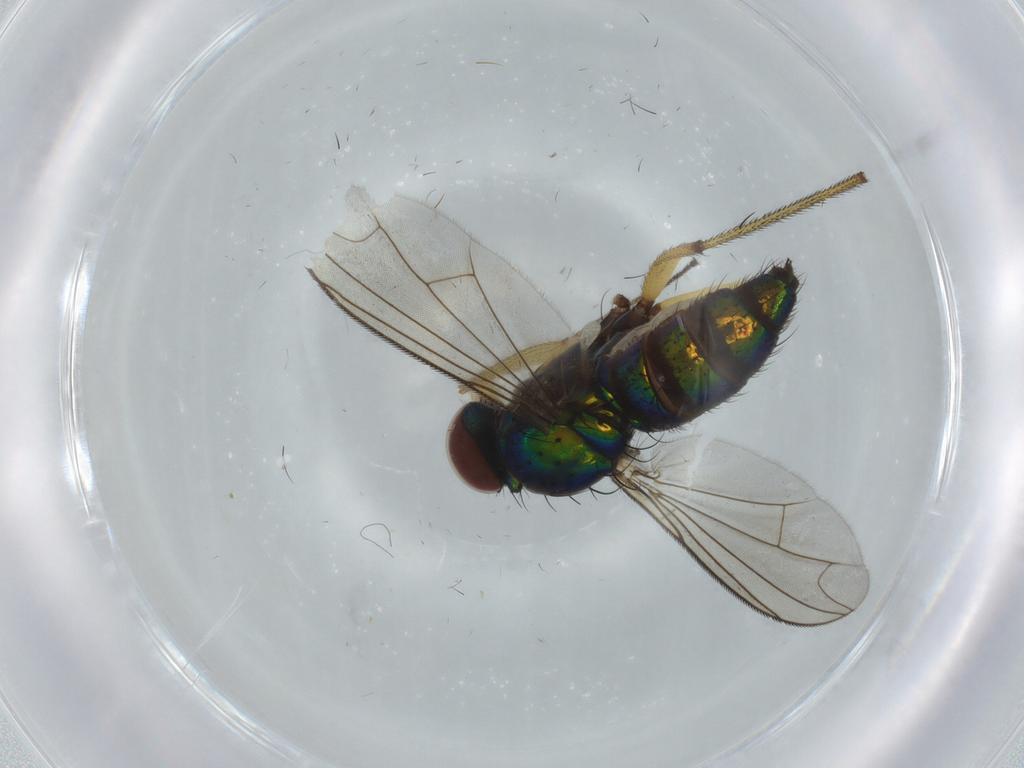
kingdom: Animalia
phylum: Arthropoda
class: Insecta
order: Diptera
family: Dolichopodidae
